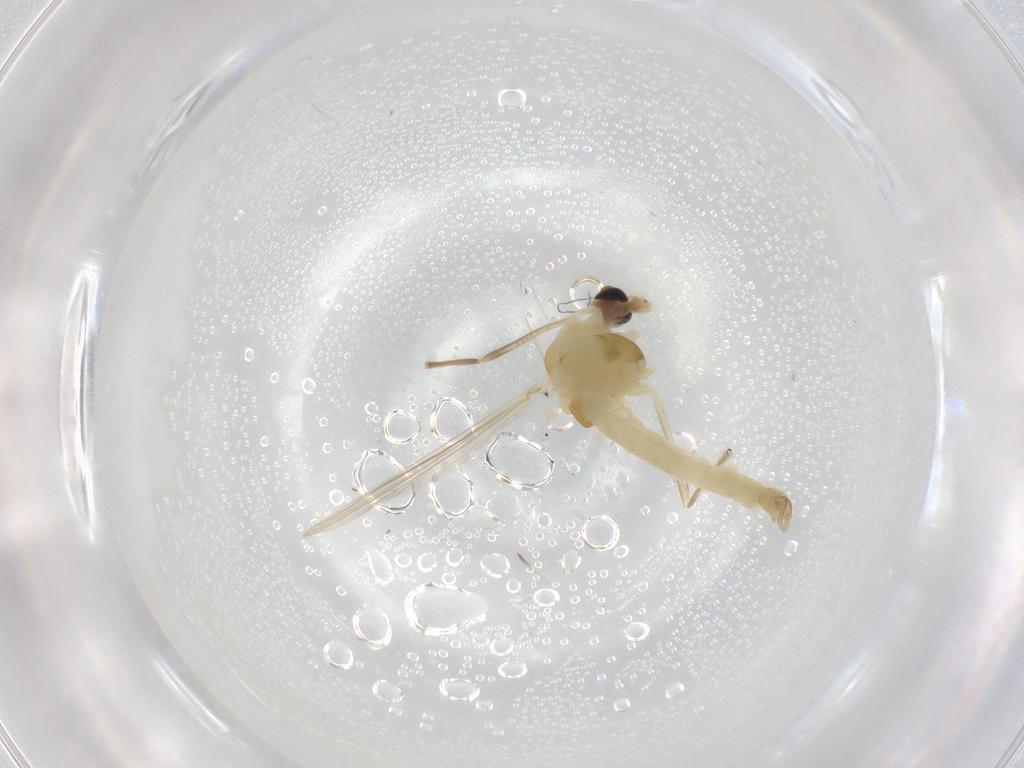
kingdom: Animalia
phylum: Arthropoda
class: Insecta
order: Diptera
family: Chironomidae
